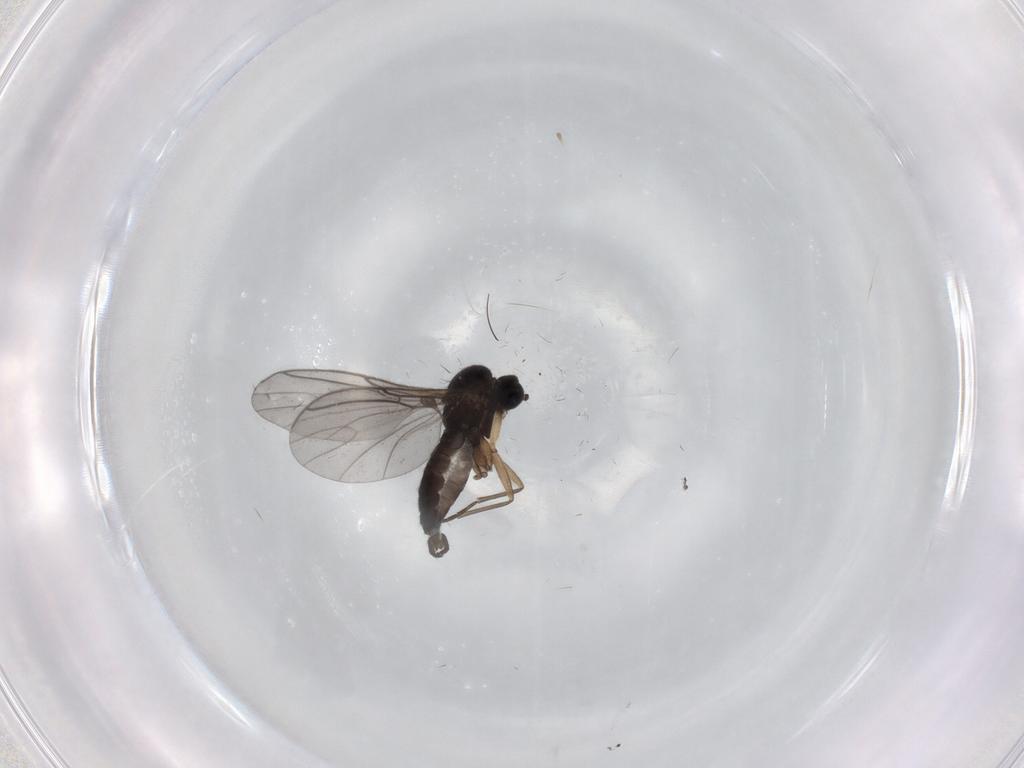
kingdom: Animalia
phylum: Arthropoda
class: Insecta
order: Diptera
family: Sciaridae
